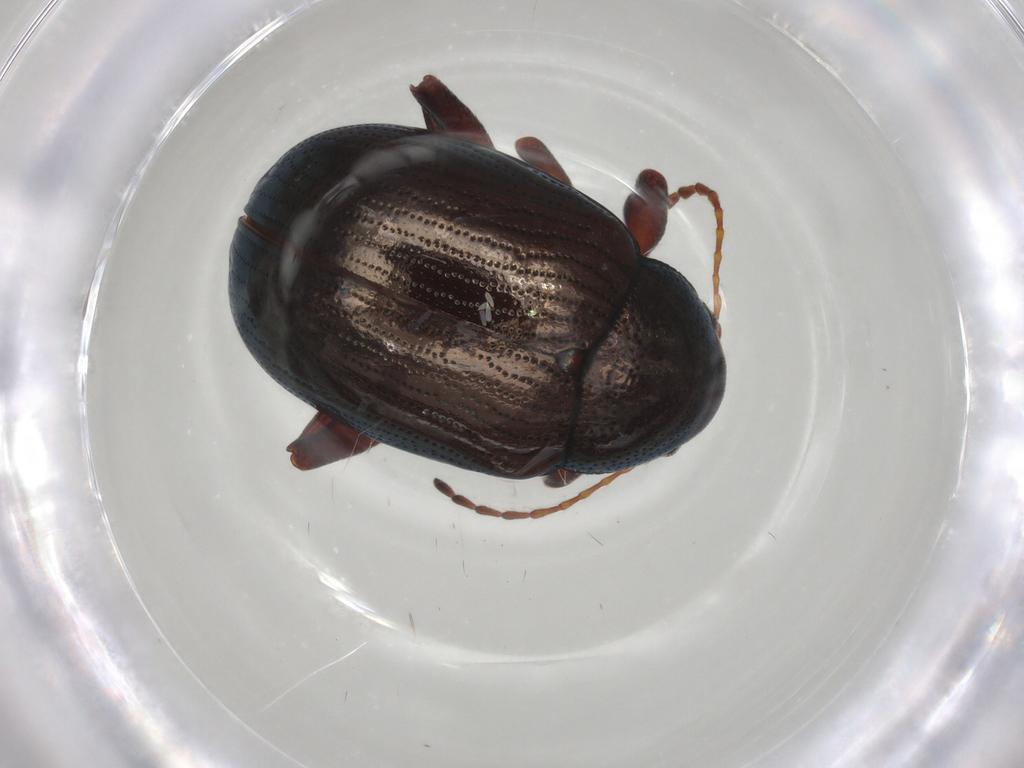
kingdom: Animalia
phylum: Arthropoda
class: Insecta
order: Coleoptera
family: Chrysomelidae
